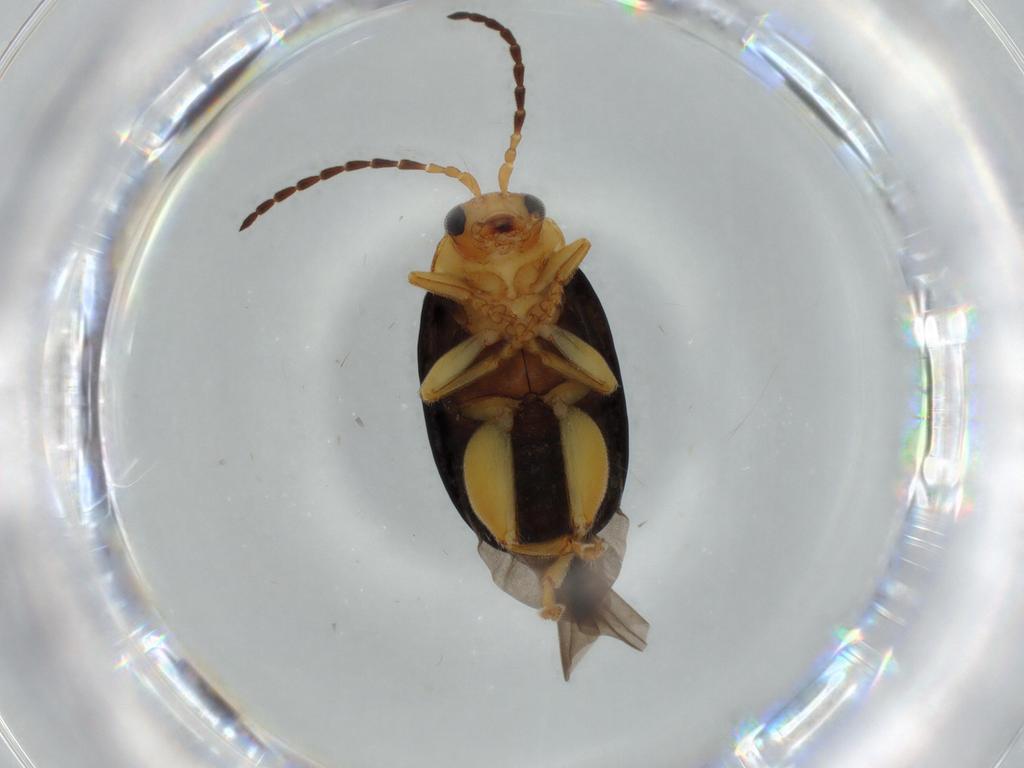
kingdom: Animalia
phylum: Arthropoda
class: Insecta
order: Coleoptera
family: Chrysomelidae
